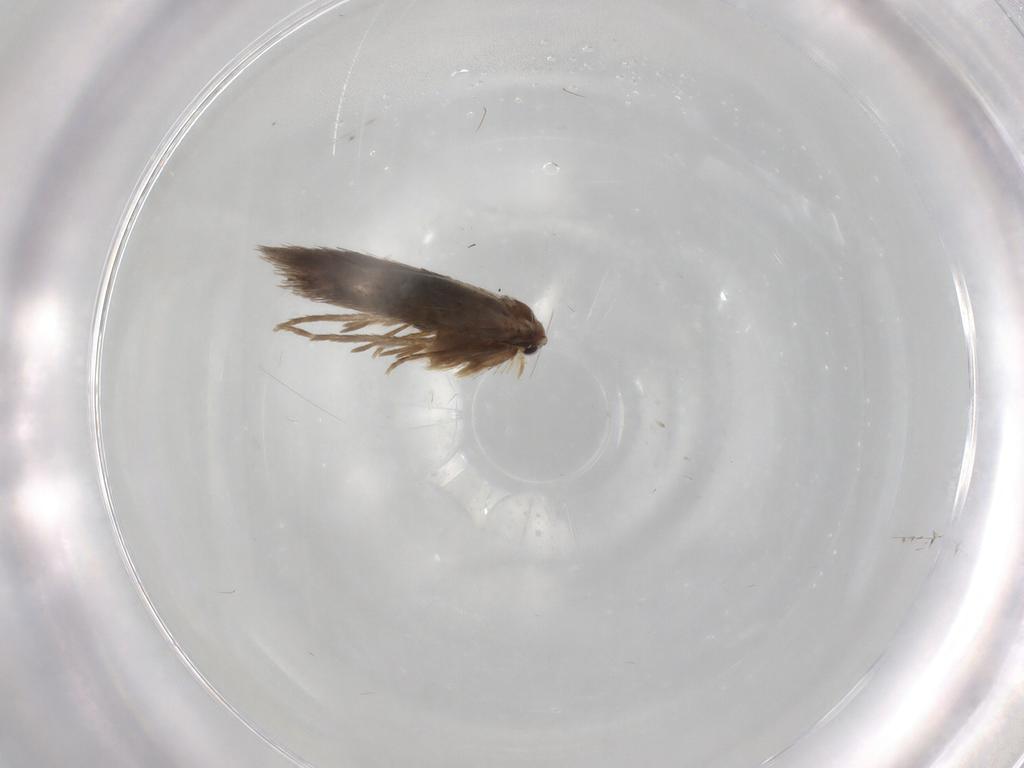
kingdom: Animalia
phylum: Arthropoda
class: Insecta
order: Lepidoptera
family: Psychidae
